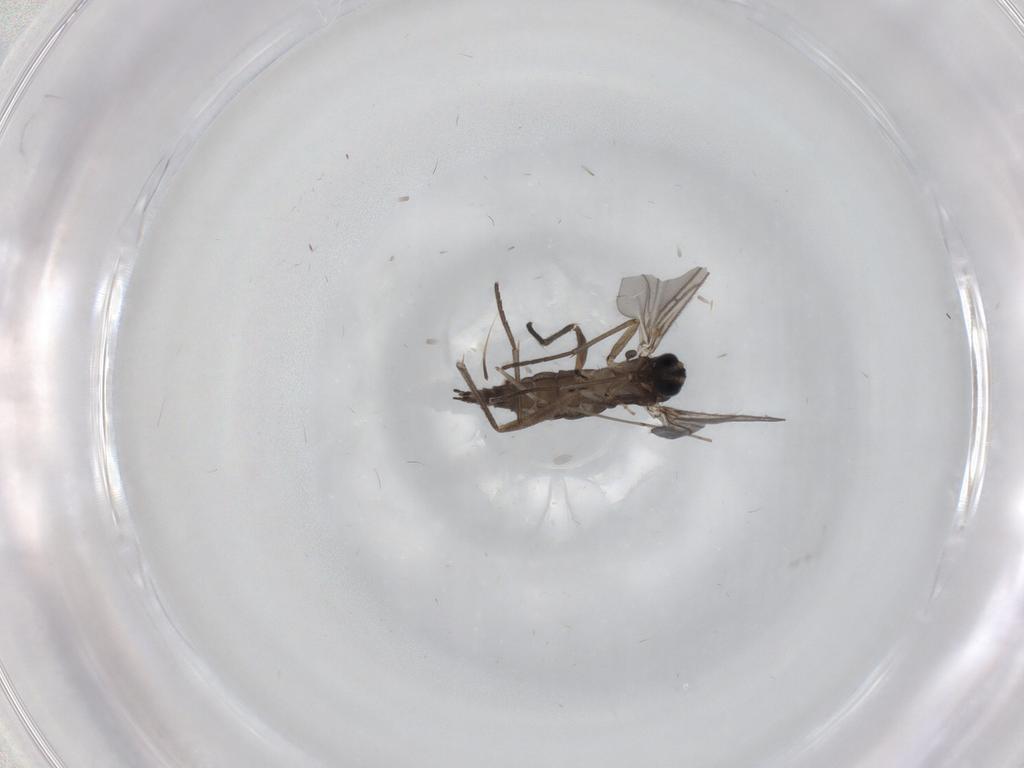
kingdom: Animalia
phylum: Arthropoda
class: Insecta
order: Diptera
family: Sciaridae
